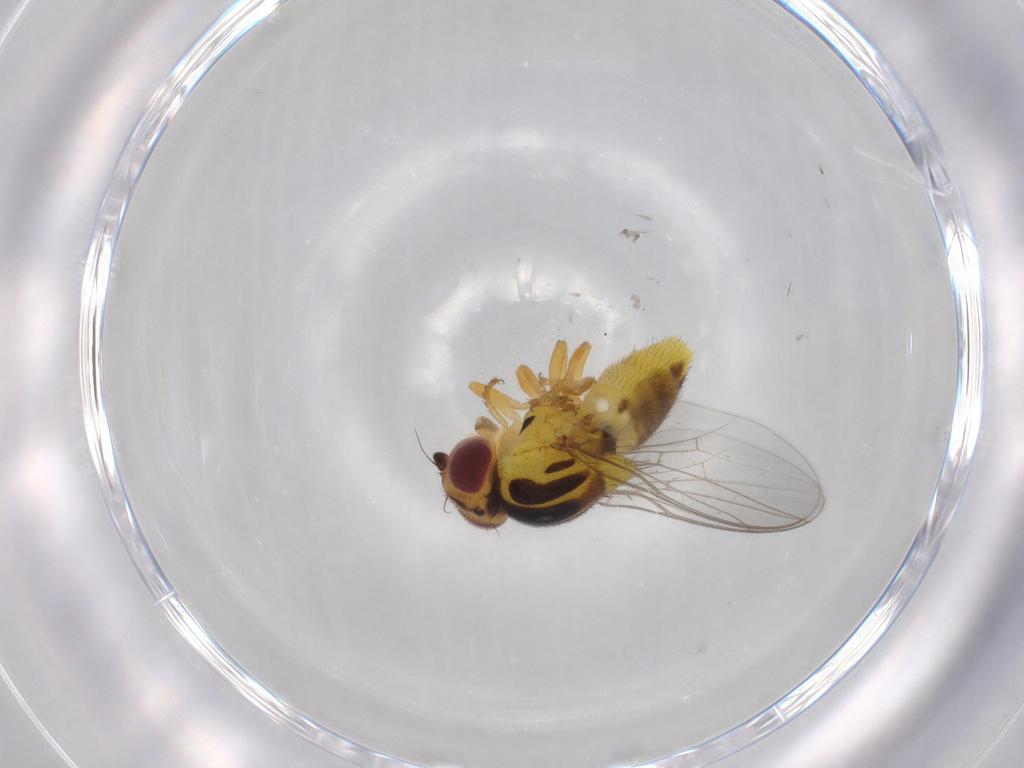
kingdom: Animalia
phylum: Arthropoda
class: Insecta
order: Diptera
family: Chloropidae
